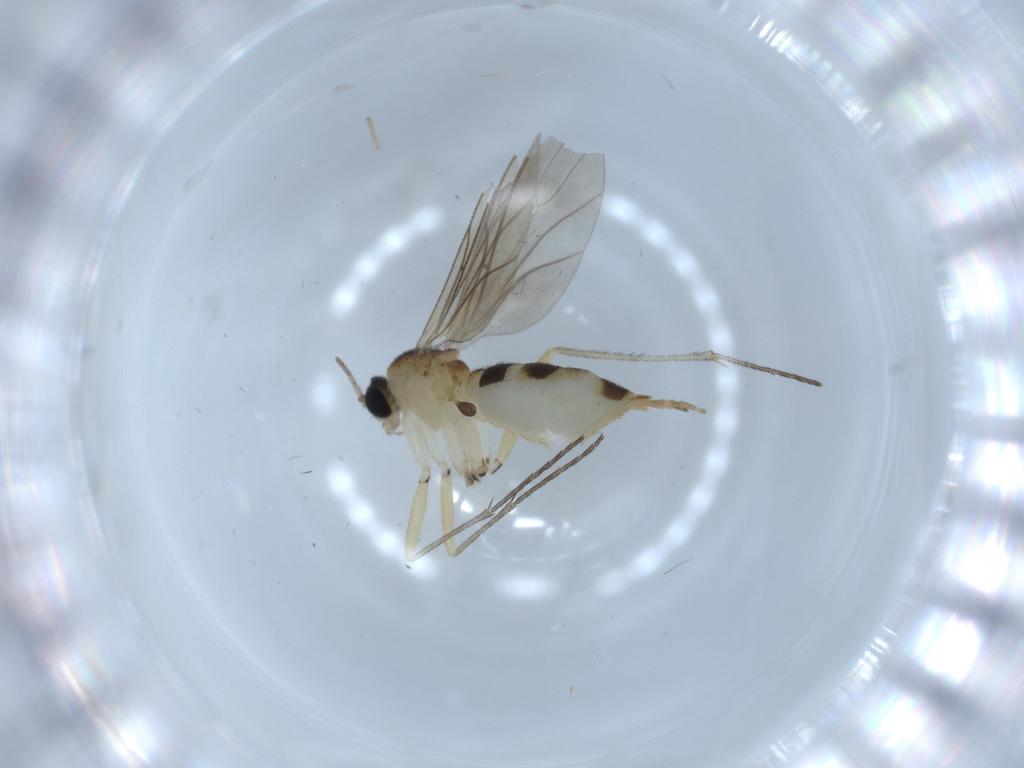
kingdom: Animalia
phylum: Arthropoda
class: Insecta
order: Diptera
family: Sciaridae
